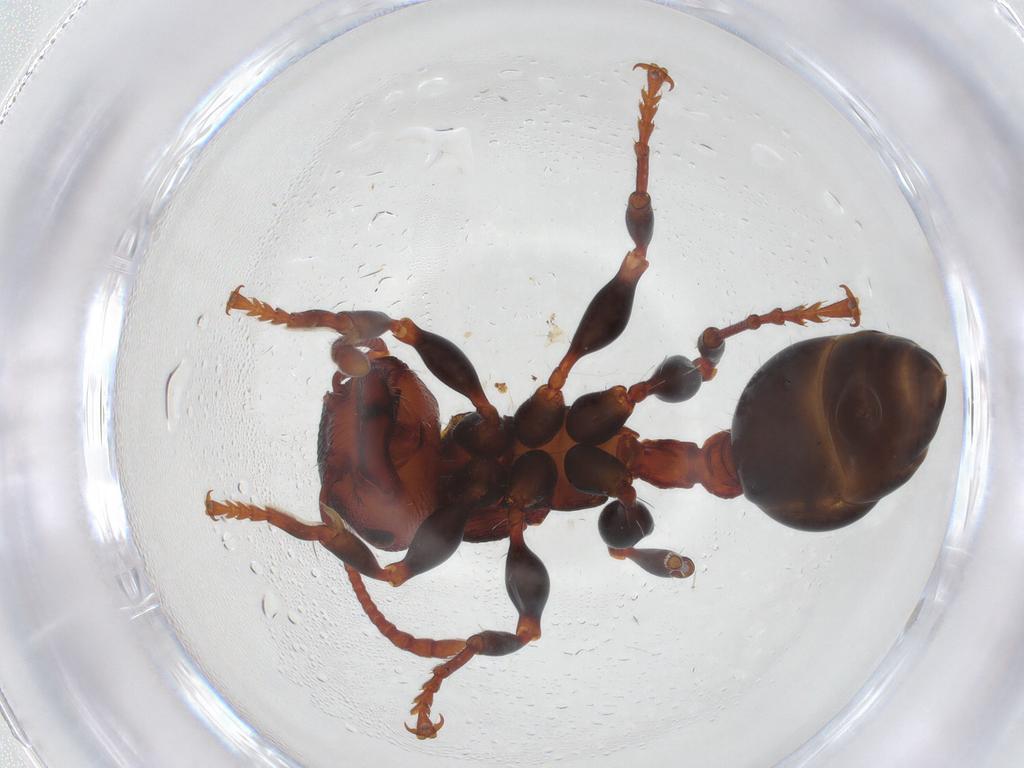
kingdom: Animalia
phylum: Arthropoda
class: Insecta
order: Hymenoptera
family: Formicidae
